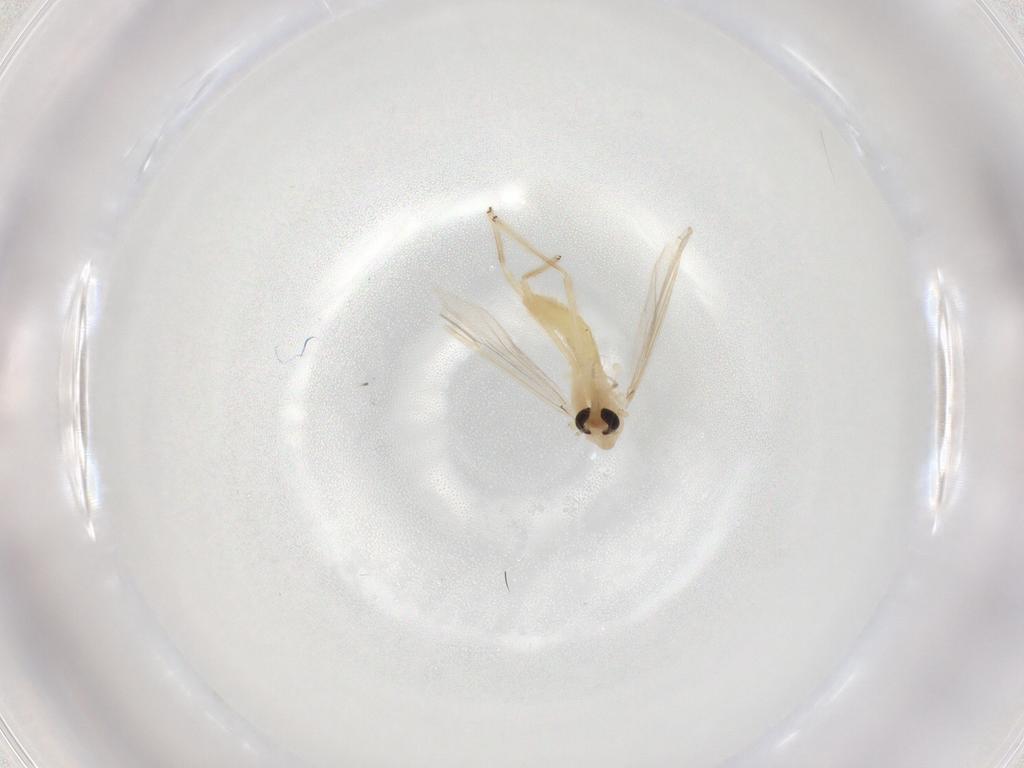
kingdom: Animalia
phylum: Arthropoda
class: Insecta
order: Diptera
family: Chironomidae
